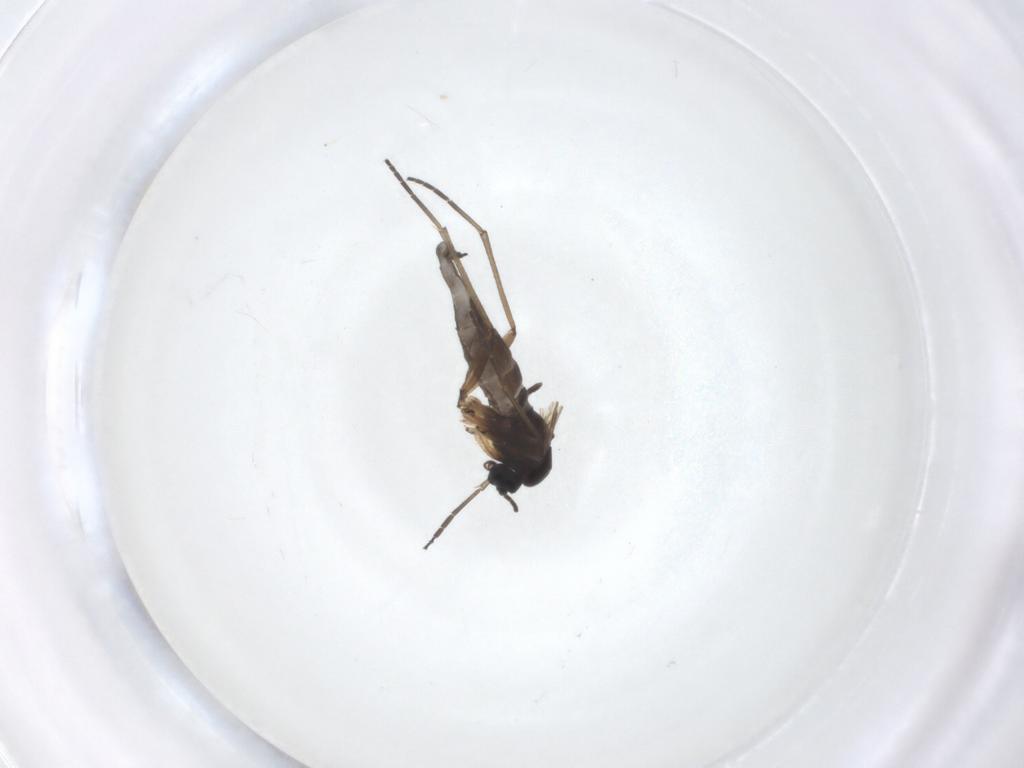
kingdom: Animalia
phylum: Arthropoda
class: Insecta
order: Diptera
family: Sciaridae
